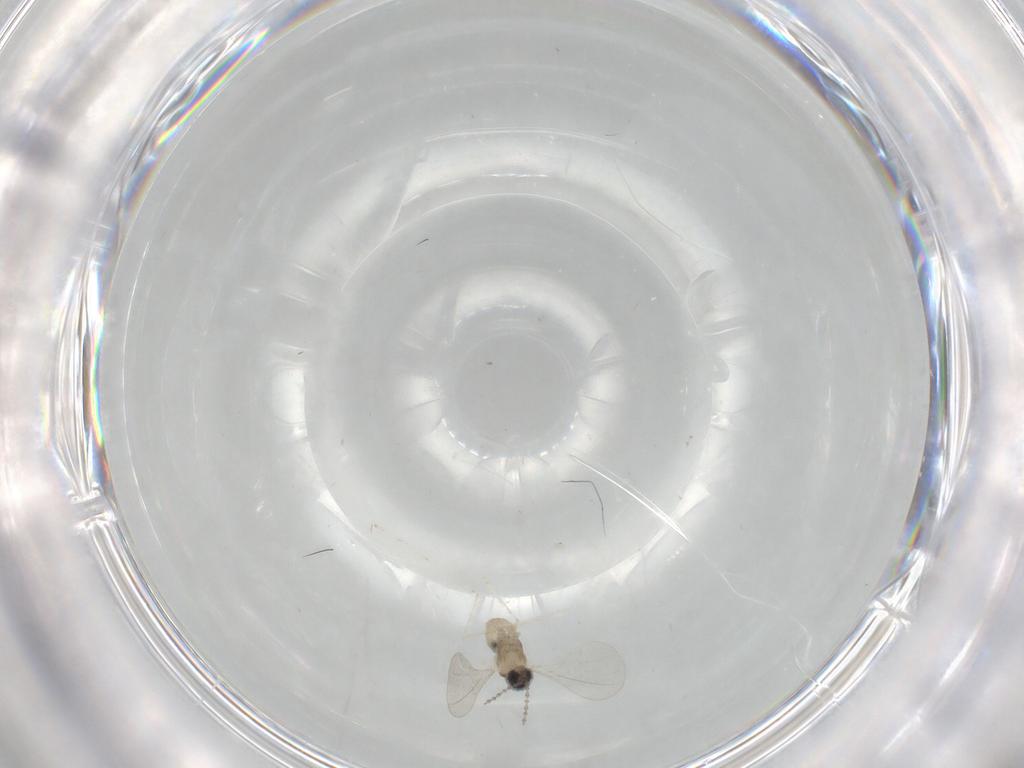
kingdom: Animalia
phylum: Arthropoda
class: Insecta
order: Diptera
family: Cecidomyiidae
